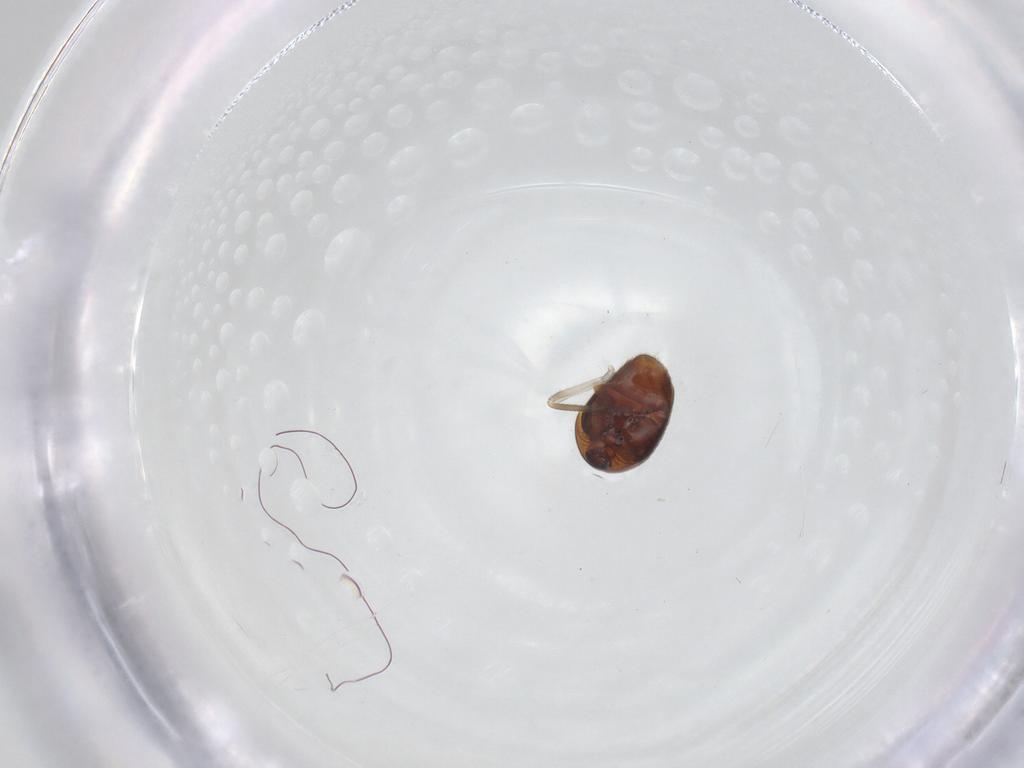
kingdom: Animalia
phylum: Arthropoda
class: Insecta
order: Coleoptera
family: Corylophidae
